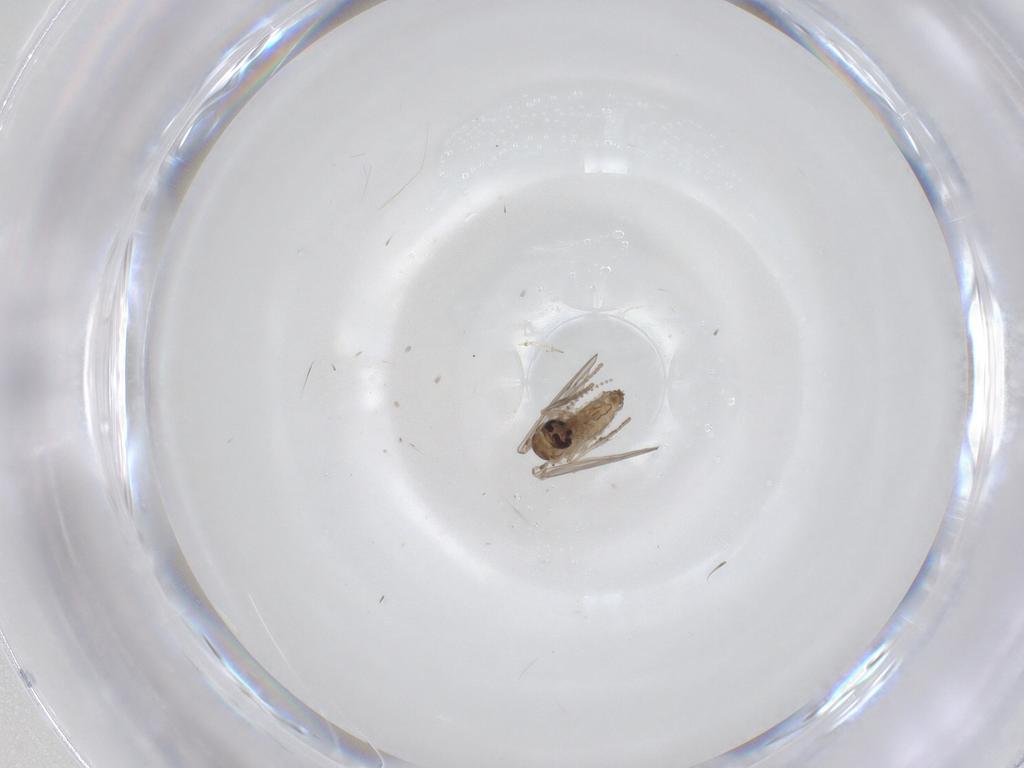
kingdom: Animalia
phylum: Arthropoda
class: Insecta
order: Diptera
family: Psychodidae
